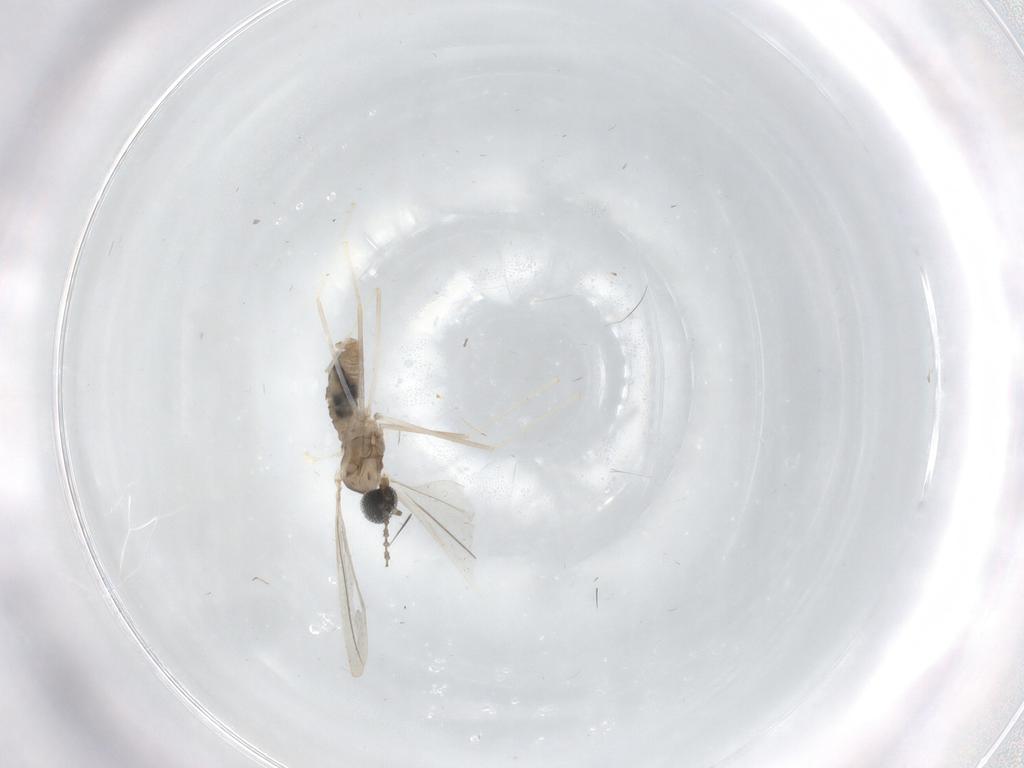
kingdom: Animalia
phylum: Arthropoda
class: Insecta
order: Diptera
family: Phoridae
